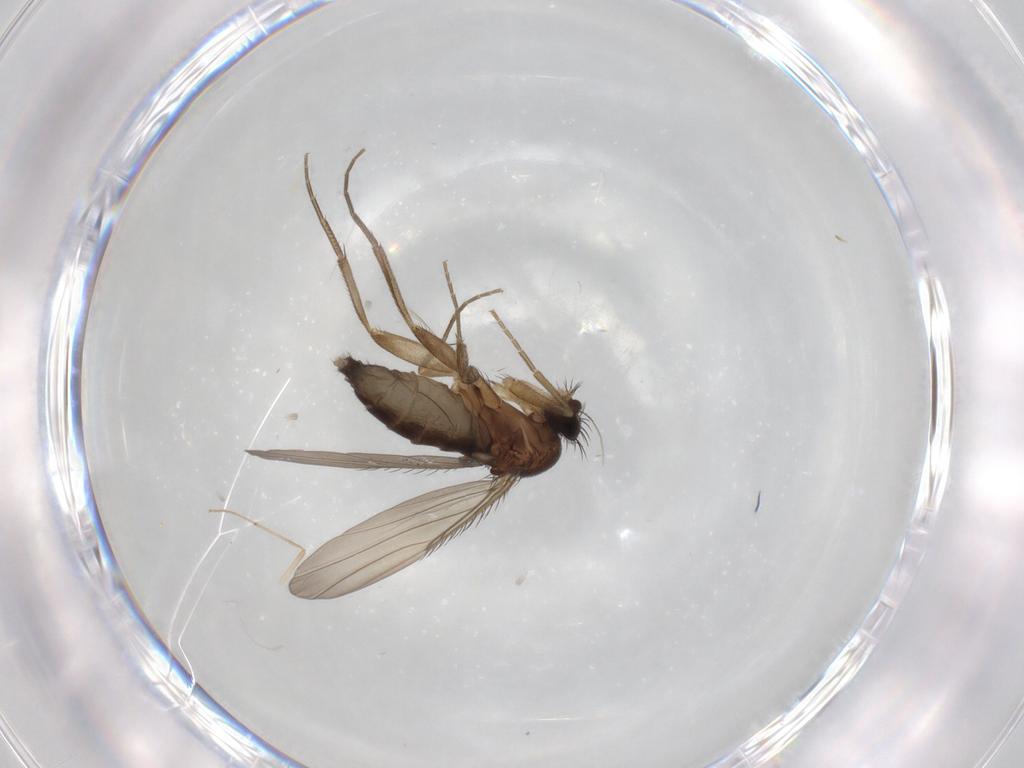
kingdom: Animalia
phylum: Arthropoda
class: Insecta
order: Diptera
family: Phoridae
